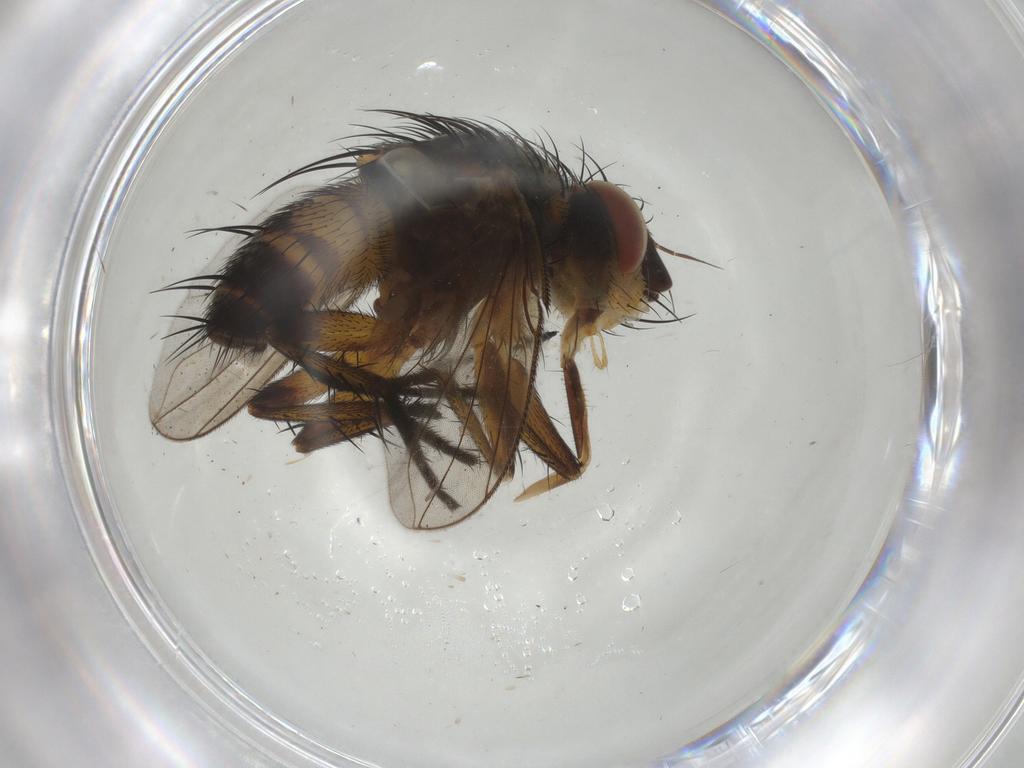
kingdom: Animalia
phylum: Arthropoda
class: Insecta
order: Diptera
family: Tachinidae
